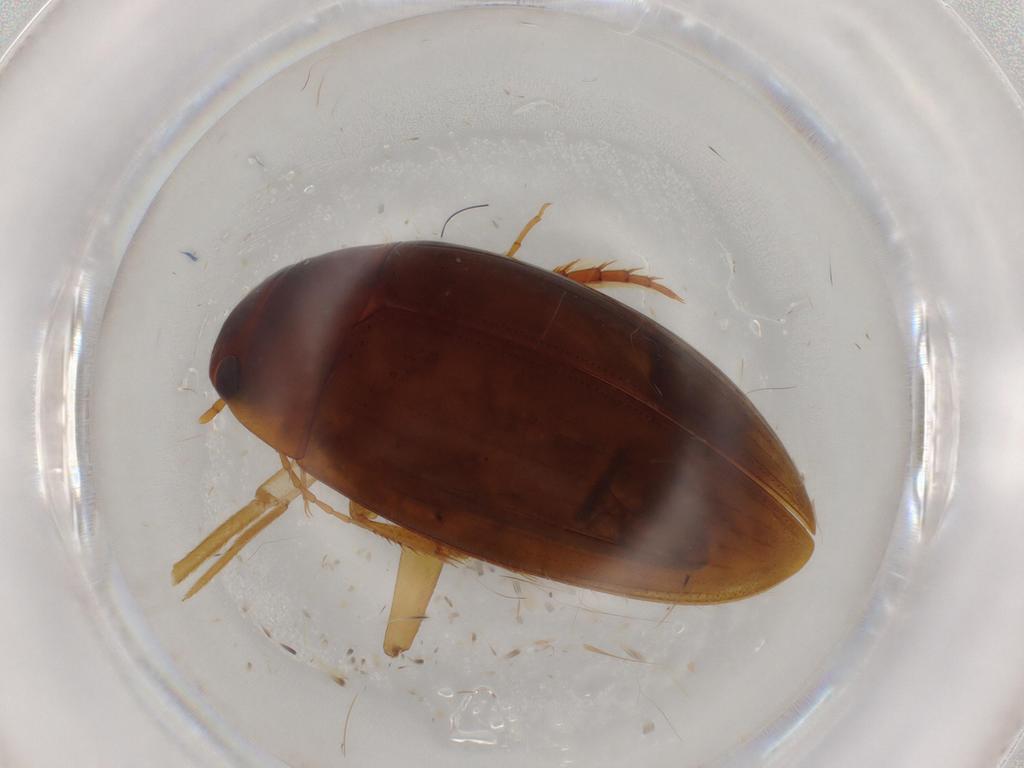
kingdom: Animalia
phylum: Arthropoda
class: Insecta
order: Coleoptera
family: Dytiscidae
